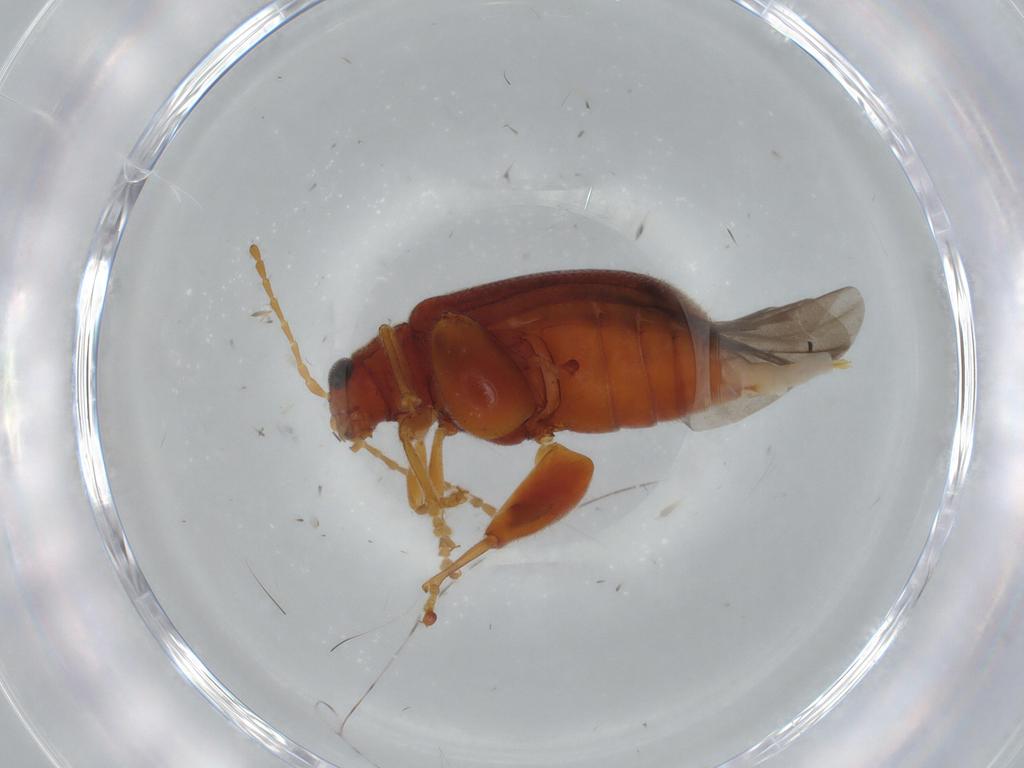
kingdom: Animalia
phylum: Arthropoda
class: Insecta
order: Coleoptera
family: Chrysomelidae
